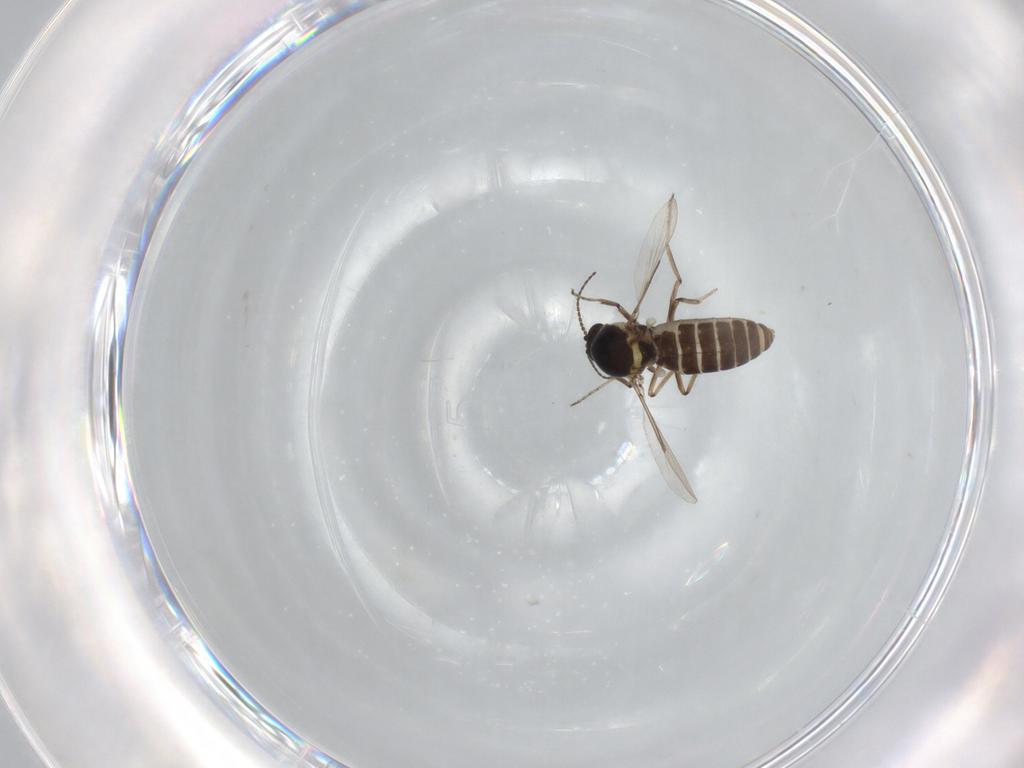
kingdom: Animalia
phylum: Arthropoda
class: Insecta
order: Diptera
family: Ceratopogonidae
